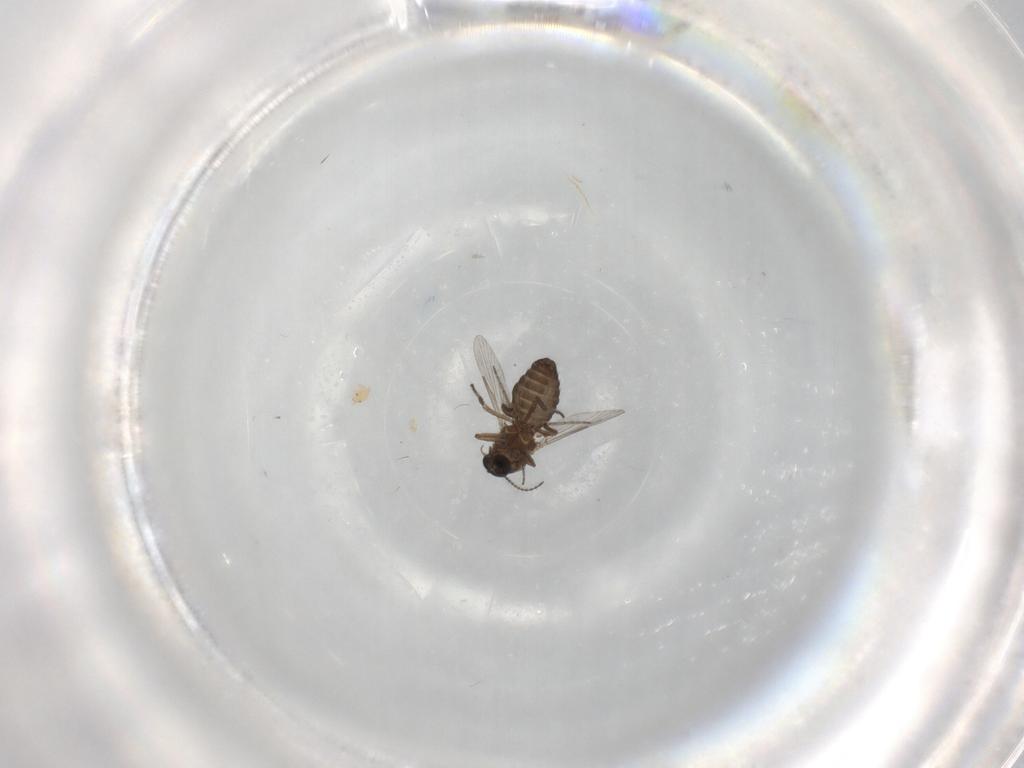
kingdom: Animalia
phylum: Arthropoda
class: Insecta
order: Diptera
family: Ceratopogonidae
